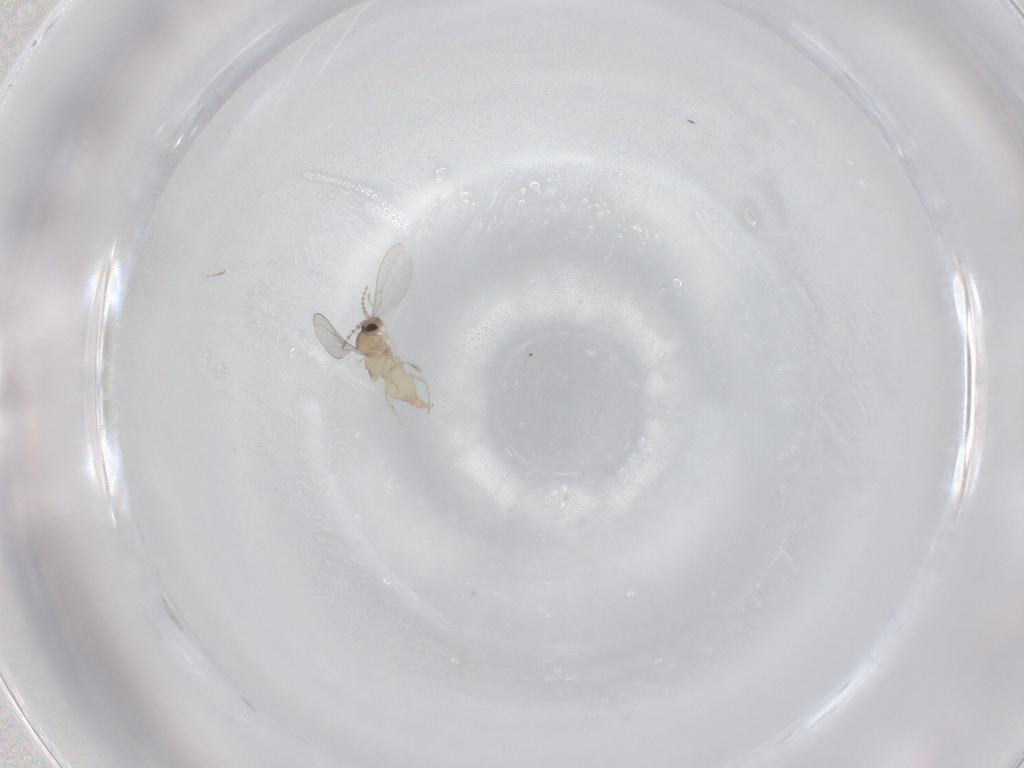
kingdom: Animalia
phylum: Arthropoda
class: Insecta
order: Diptera
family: Cecidomyiidae
